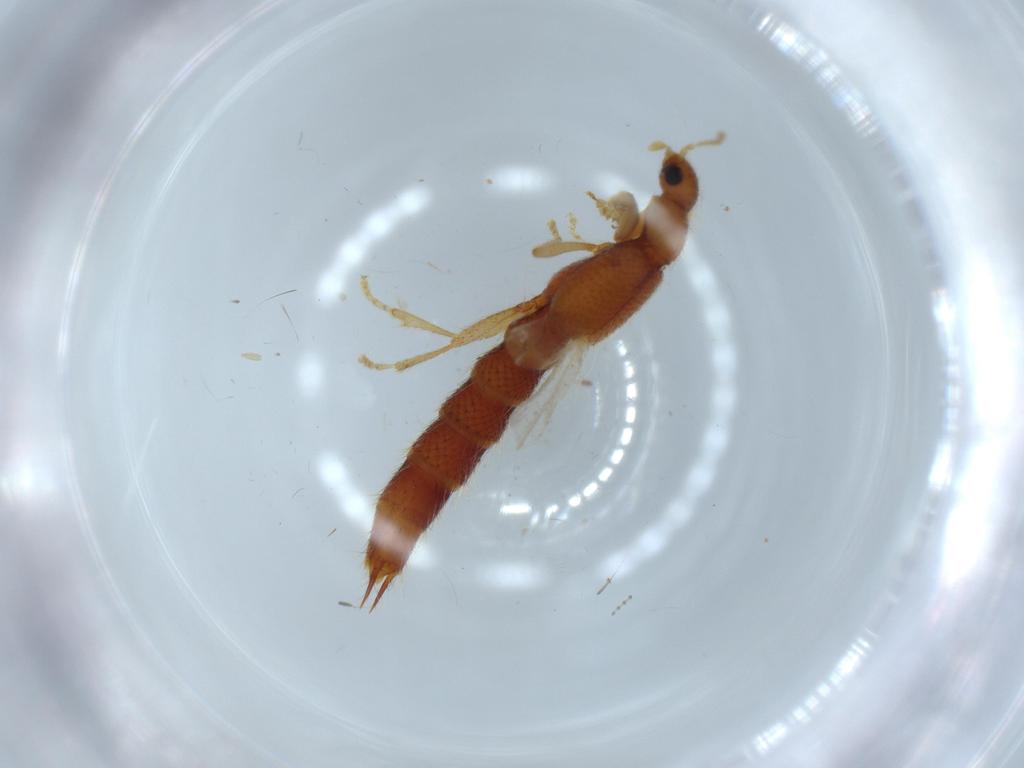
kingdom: Animalia
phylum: Arthropoda
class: Insecta
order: Coleoptera
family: Staphylinidae
